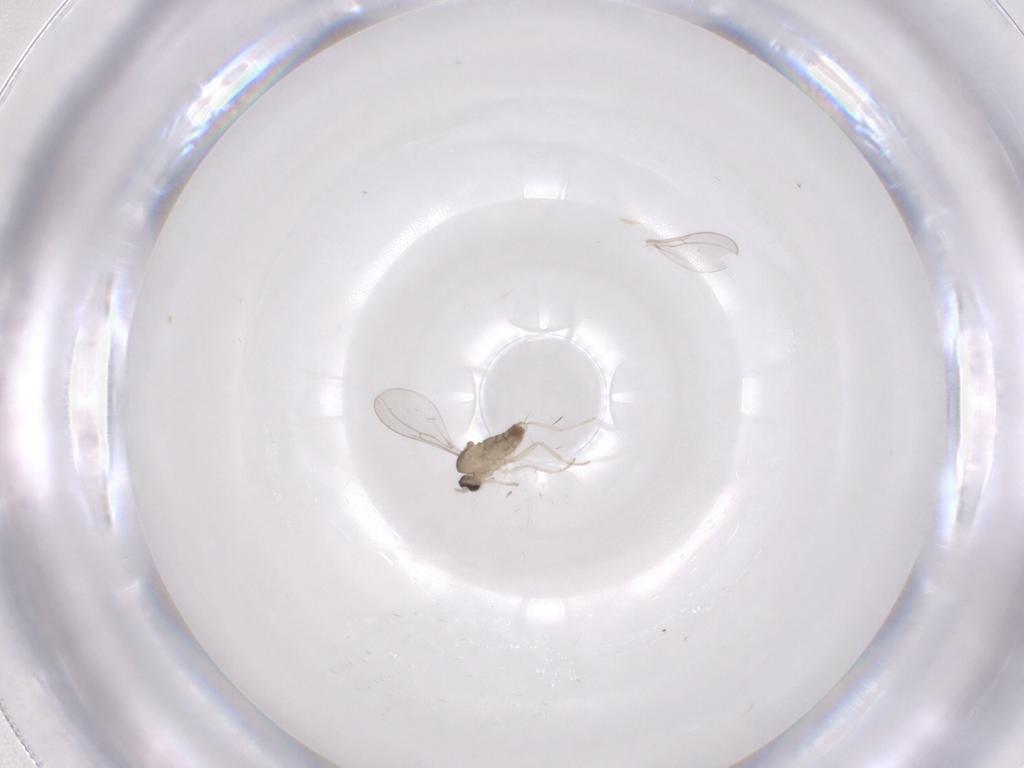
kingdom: Animalia
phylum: Arthropoda
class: Insecta
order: Diptera
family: Cecidomyiidae
